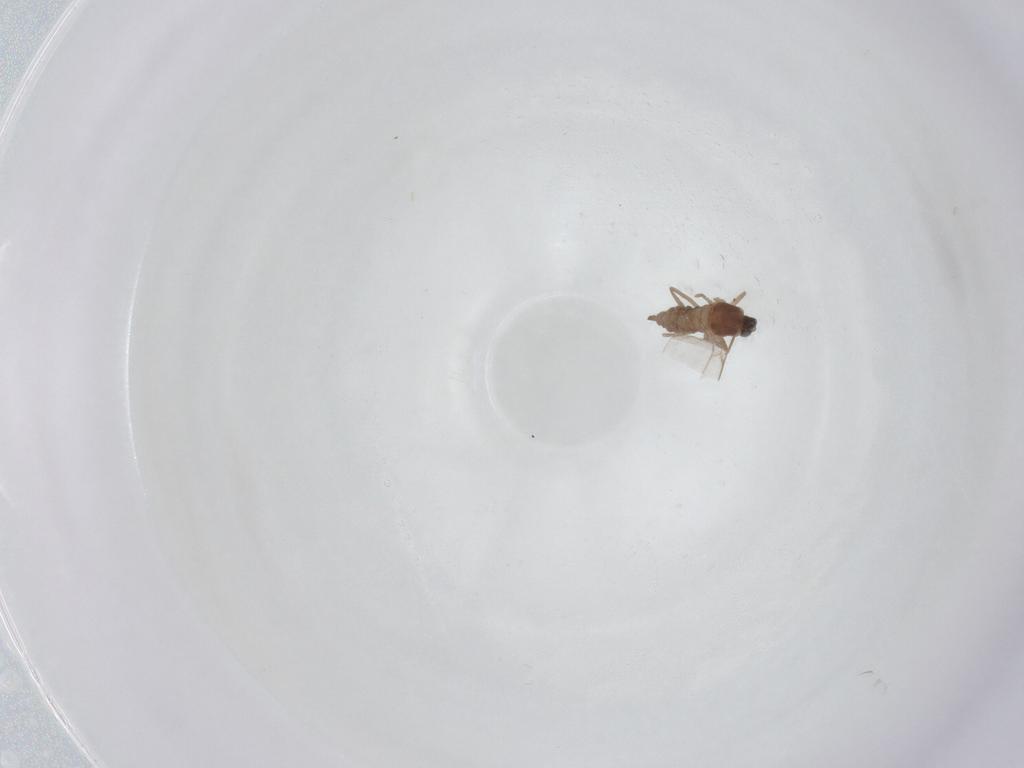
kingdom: Animalia
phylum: Arthropoda
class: Insecta
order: Diptera
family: Cecidomyiidae
